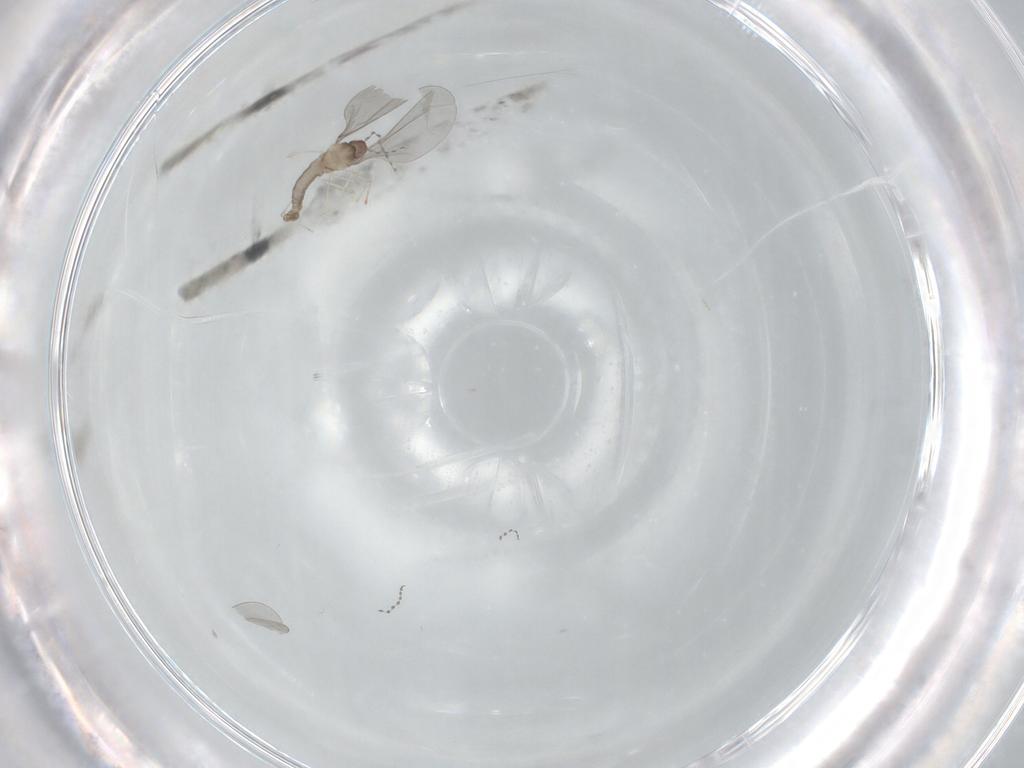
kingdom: Animalia
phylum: Arthropoda
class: Insecta
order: Diptera
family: Cecidomyiidae
